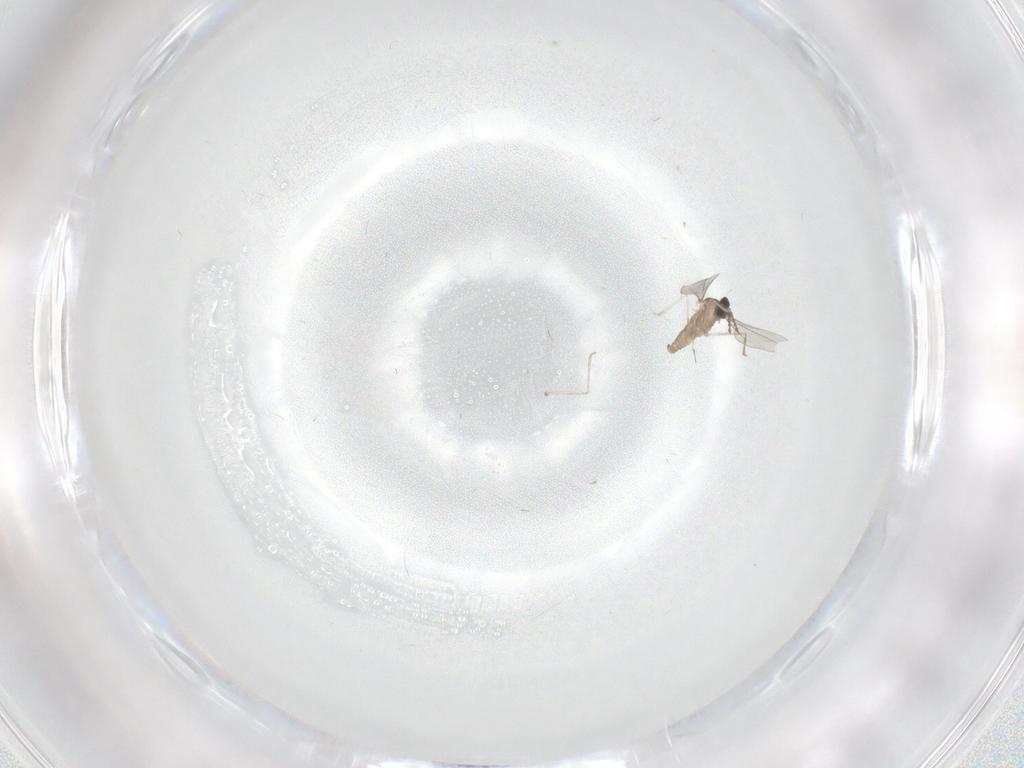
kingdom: Animalia
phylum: Arthropoda
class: Insecta
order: Diptera
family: Cecidomyiidae
